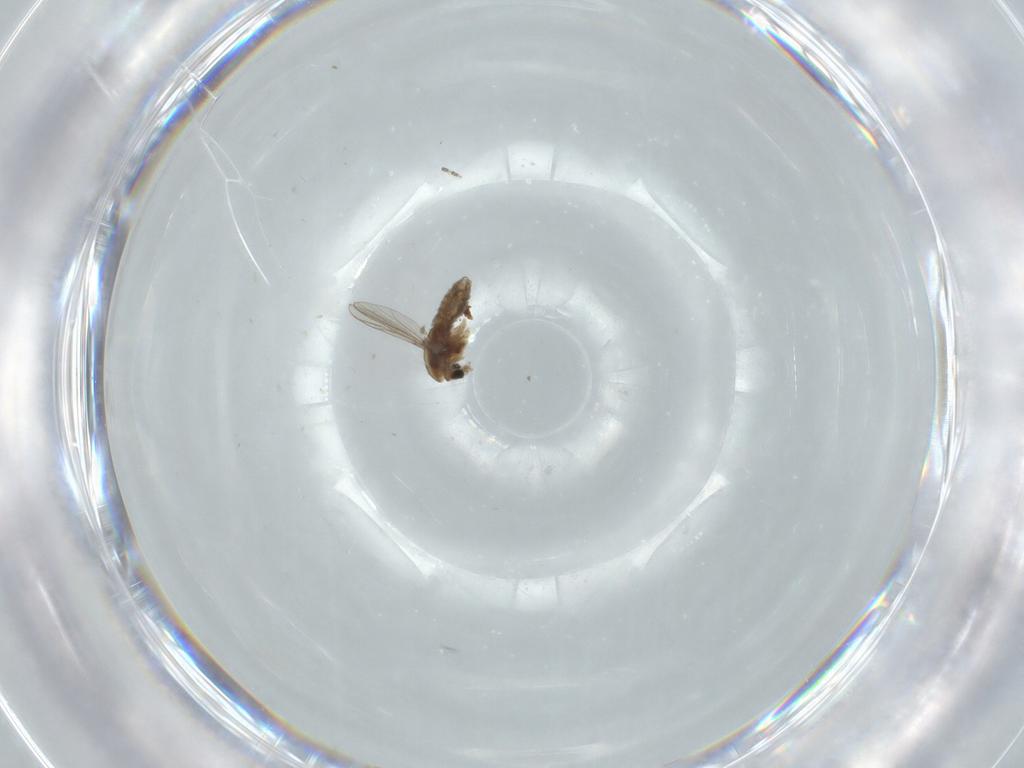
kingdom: Animalia
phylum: Arthropoda
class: Insecta
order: Diptera
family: Chironomidae
